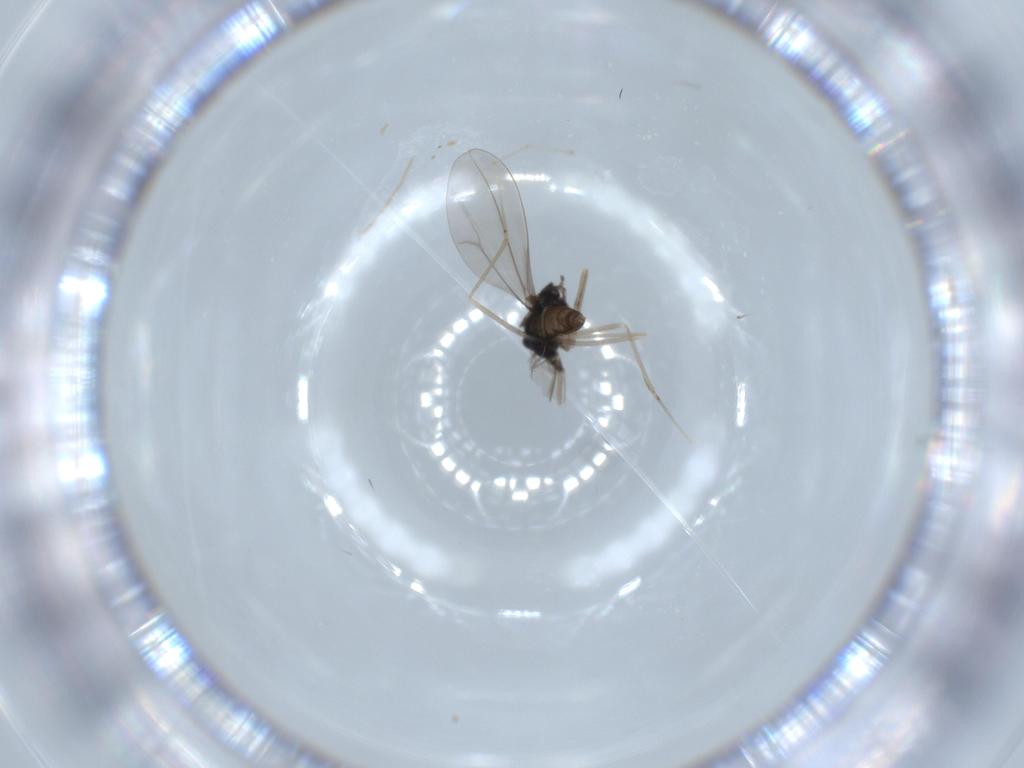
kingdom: Animalia
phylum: Arthropoda
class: Insecta
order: Diptera
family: Cecidomyiidae
